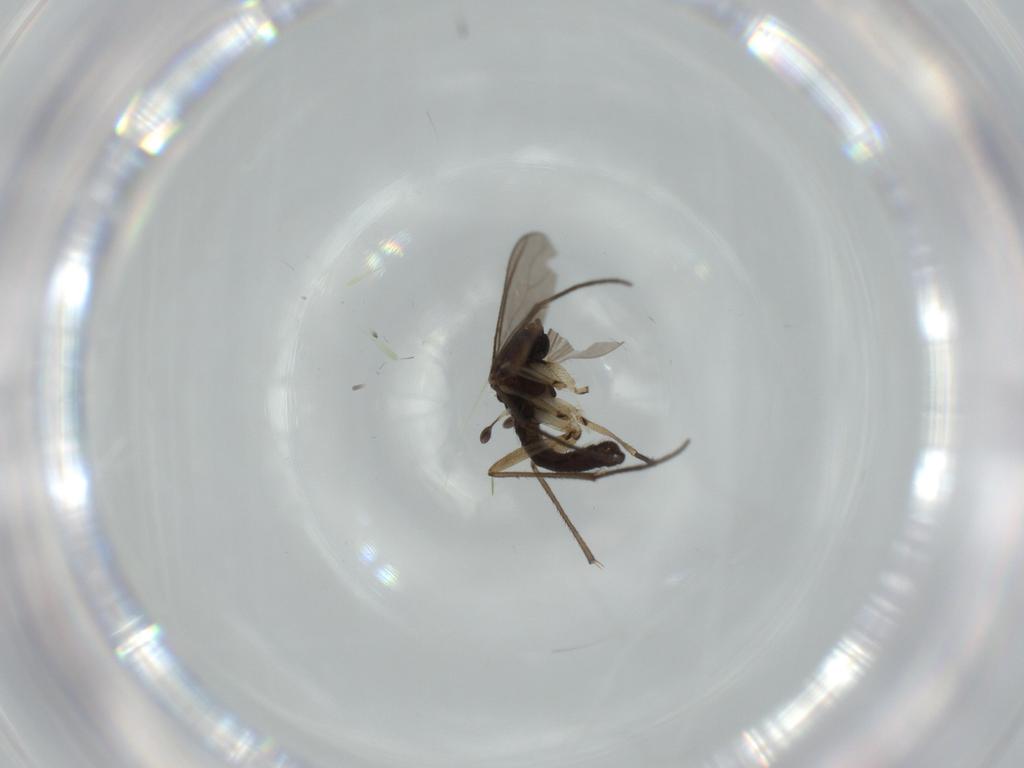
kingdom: Animalia
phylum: Arthropoda
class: Insecta
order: Diptera
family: Sciaridae
